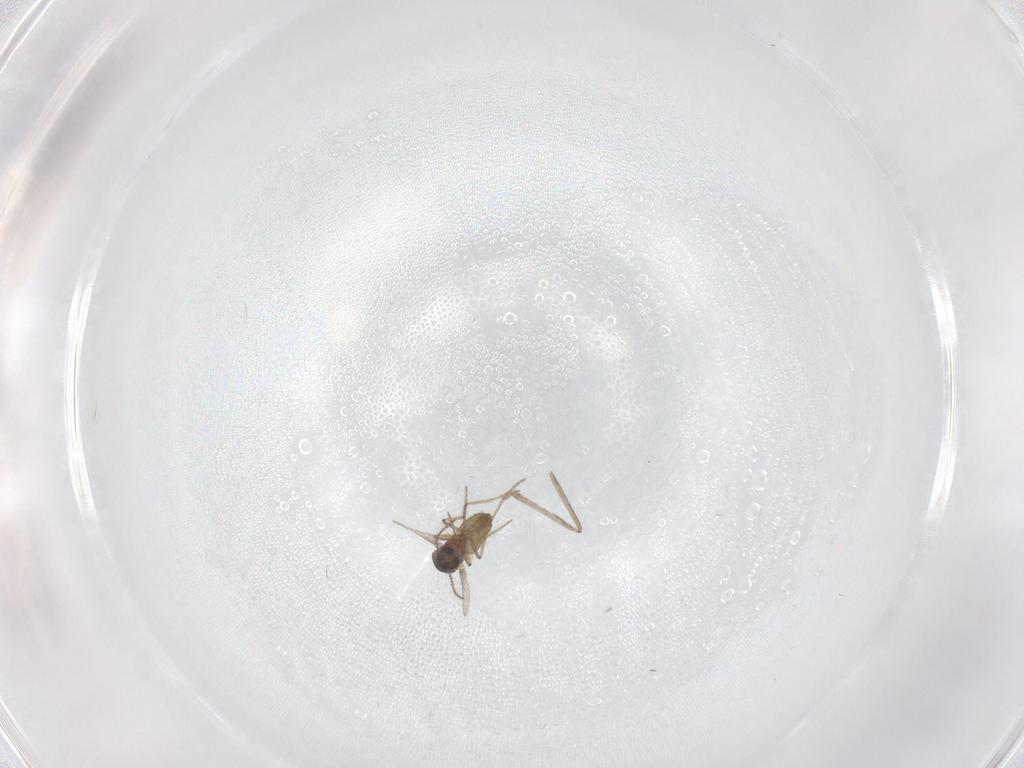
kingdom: Animalia
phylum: Arthropoda
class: Insecta
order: Diptera
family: Ceratopogonidae
